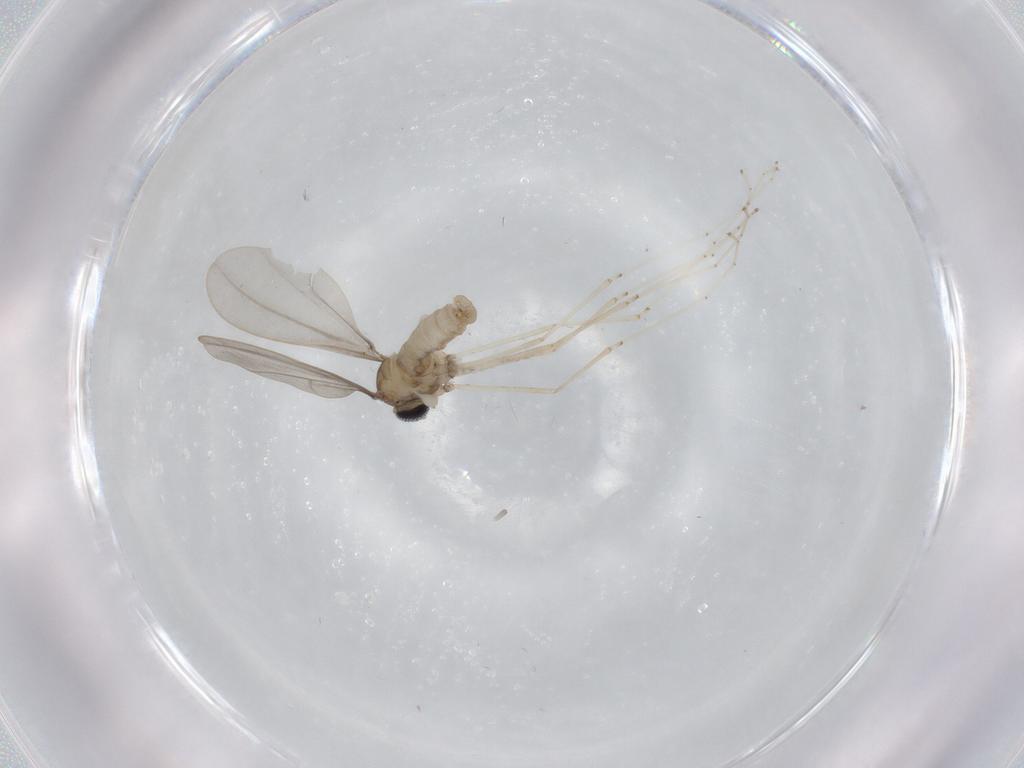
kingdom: Animalia
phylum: Arthropoda
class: Insecta
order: Diptera
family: Cecidomyiidae
